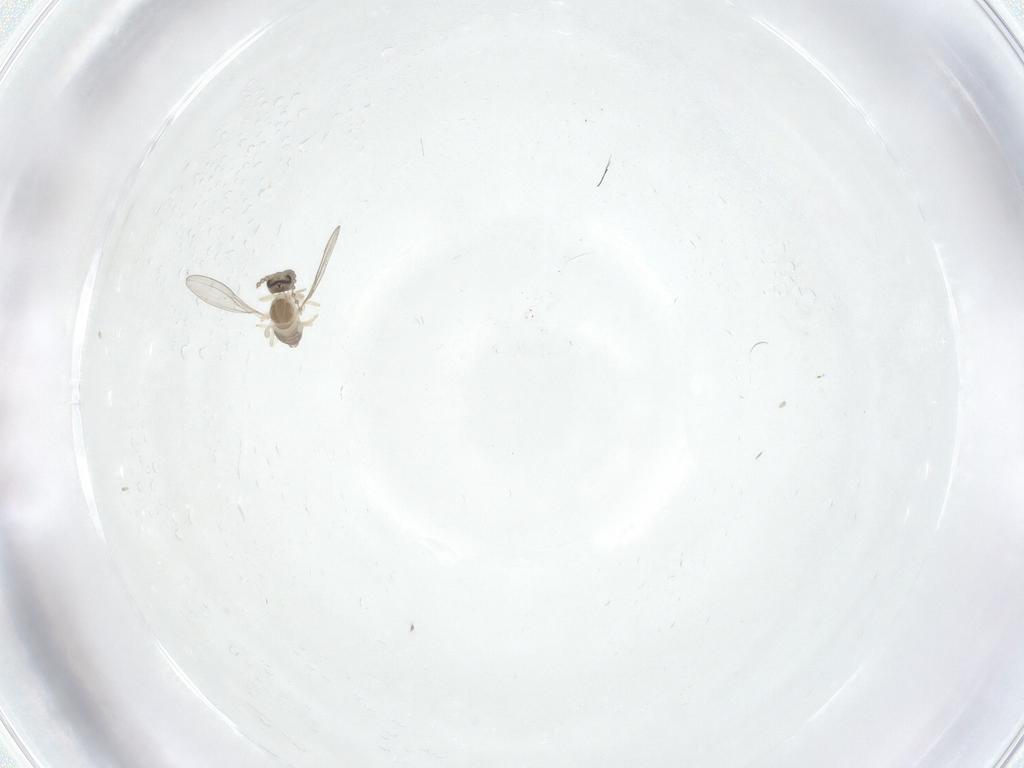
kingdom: Animalia
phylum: Arthropoda
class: Insecta
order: Diptera
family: Cecidomyiidae
